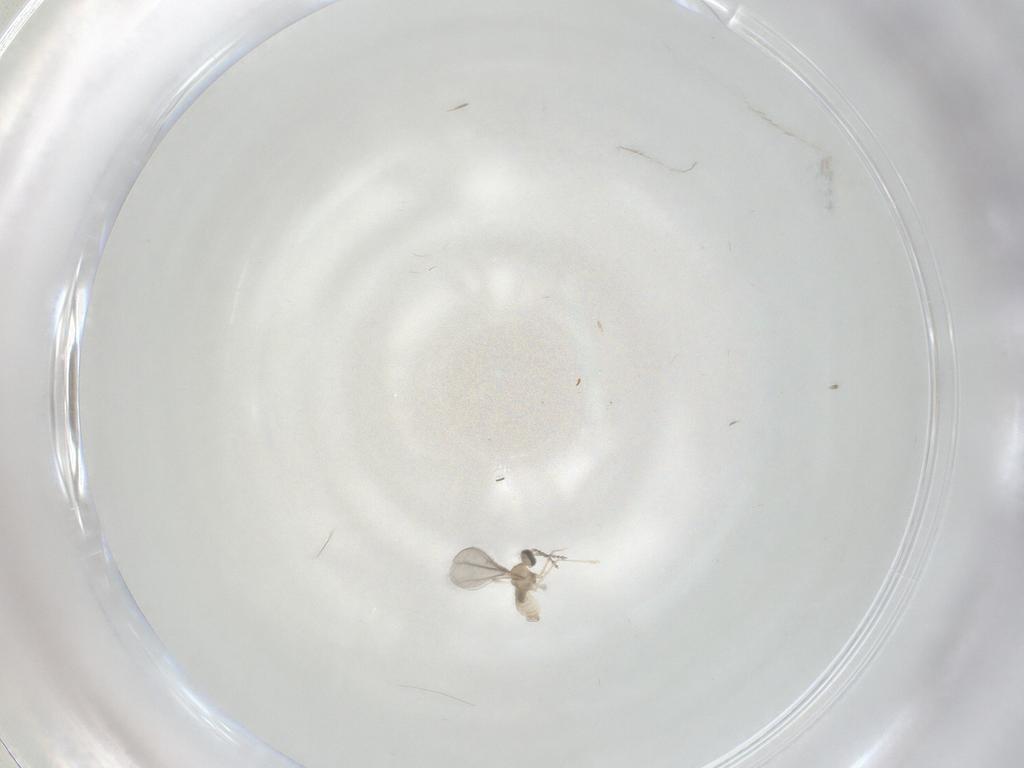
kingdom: Animalia
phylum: Arthropoda
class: Insecta
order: Diptera
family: Cecidomyiidae
